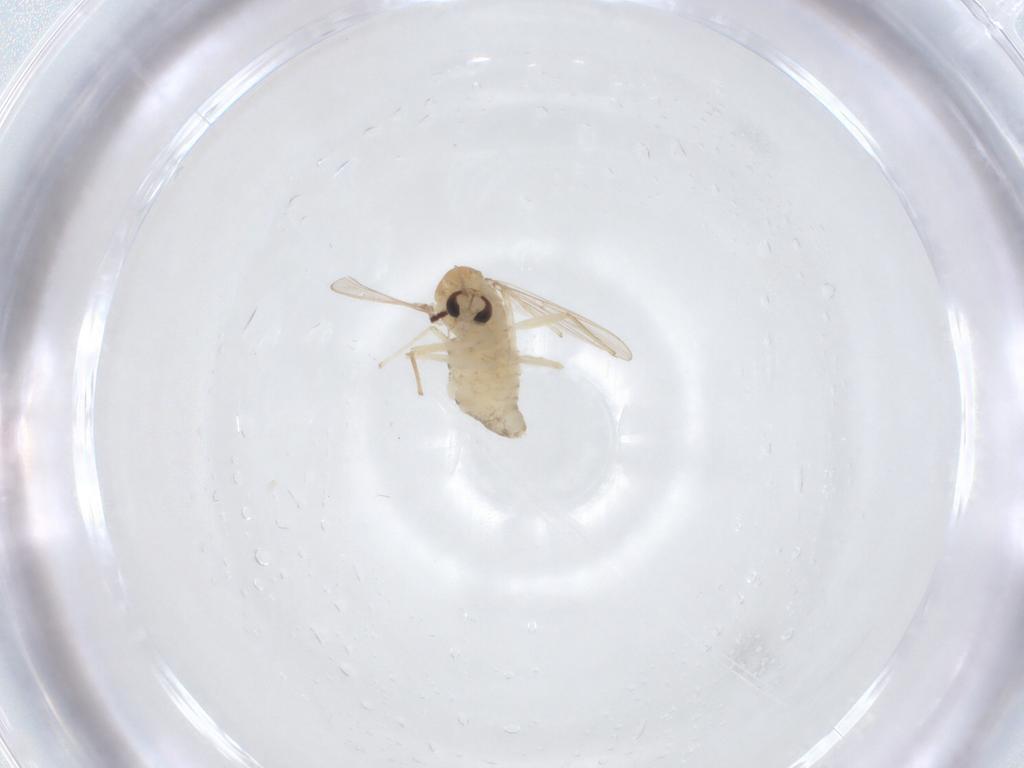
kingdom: Animalia
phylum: Arthropoda
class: Insecta
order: Diptera
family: Chironomidae
